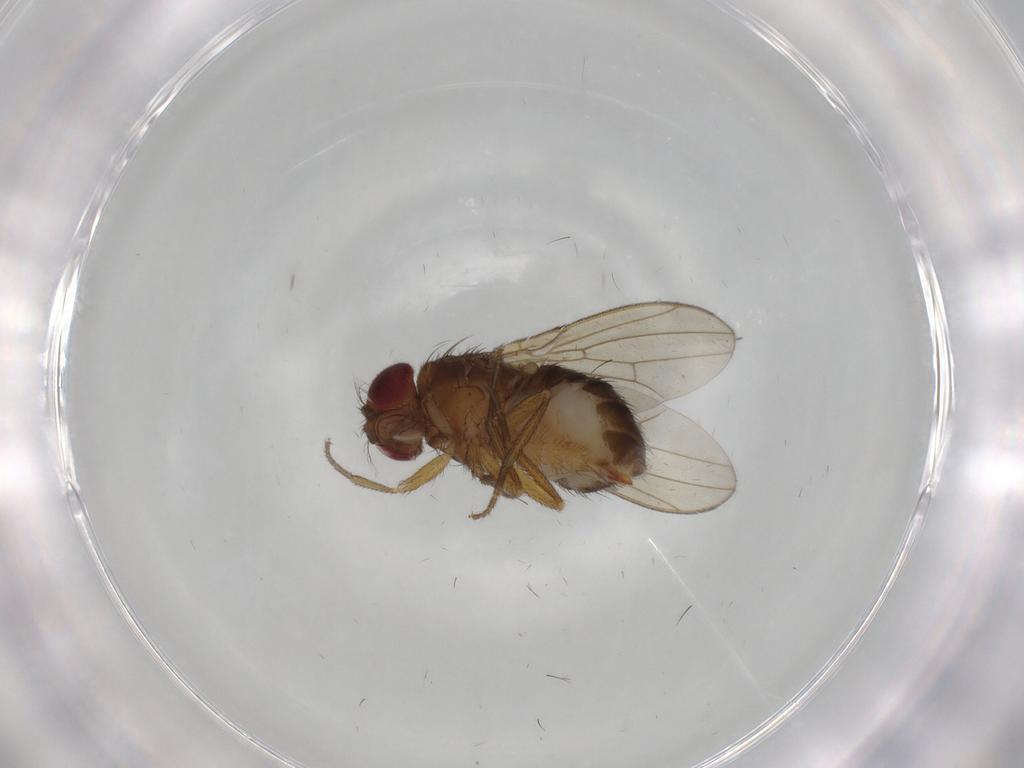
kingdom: Animalia
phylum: Arthropoda
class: Insecta
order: Diptera
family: Drosophilidae
